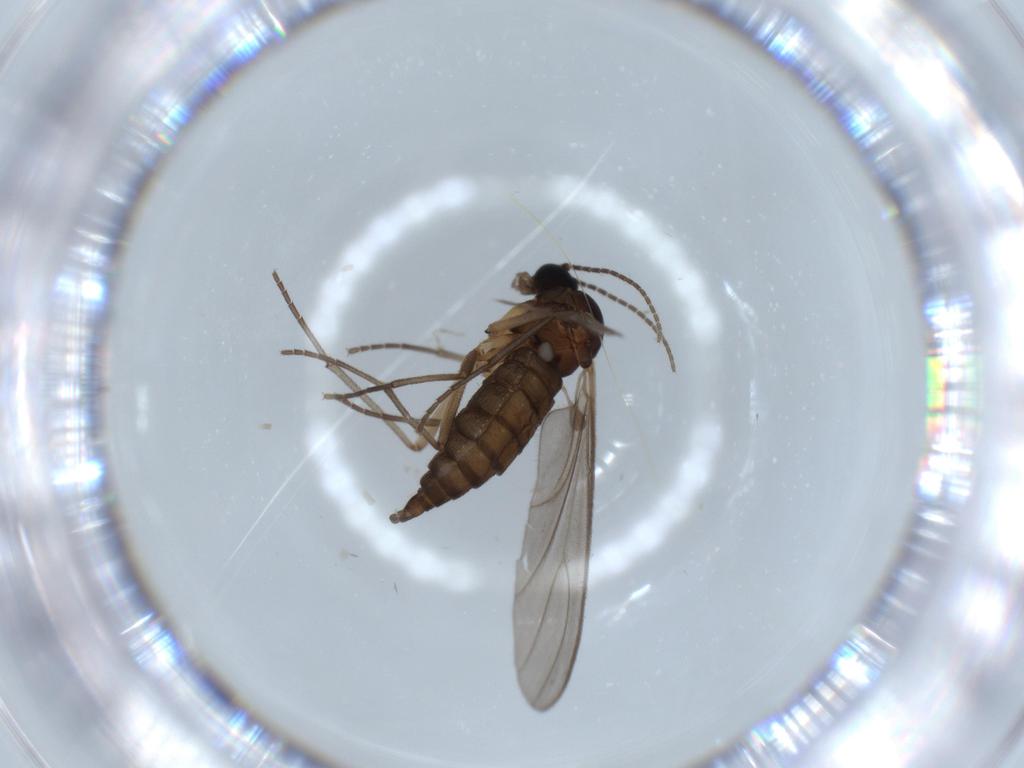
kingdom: Animalia
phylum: Arthropoda
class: Insecta
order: Diptera
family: Sciaridae
